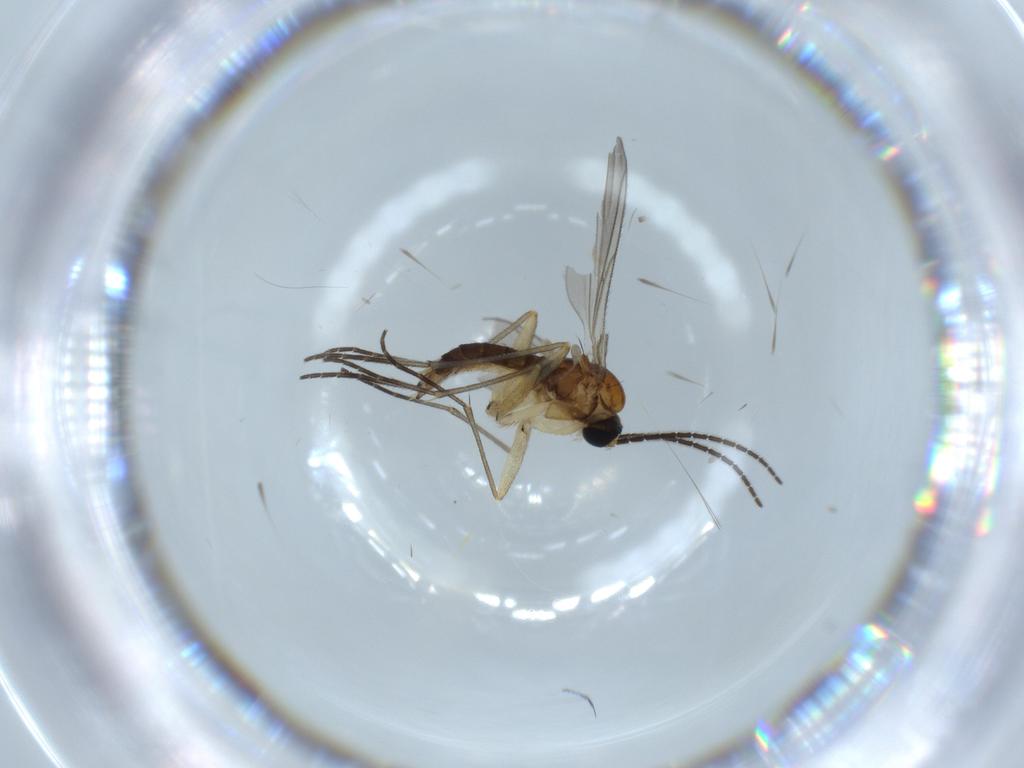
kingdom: Animalia
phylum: Arthropoda
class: Insecta
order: Diptera
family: Sciaridae
